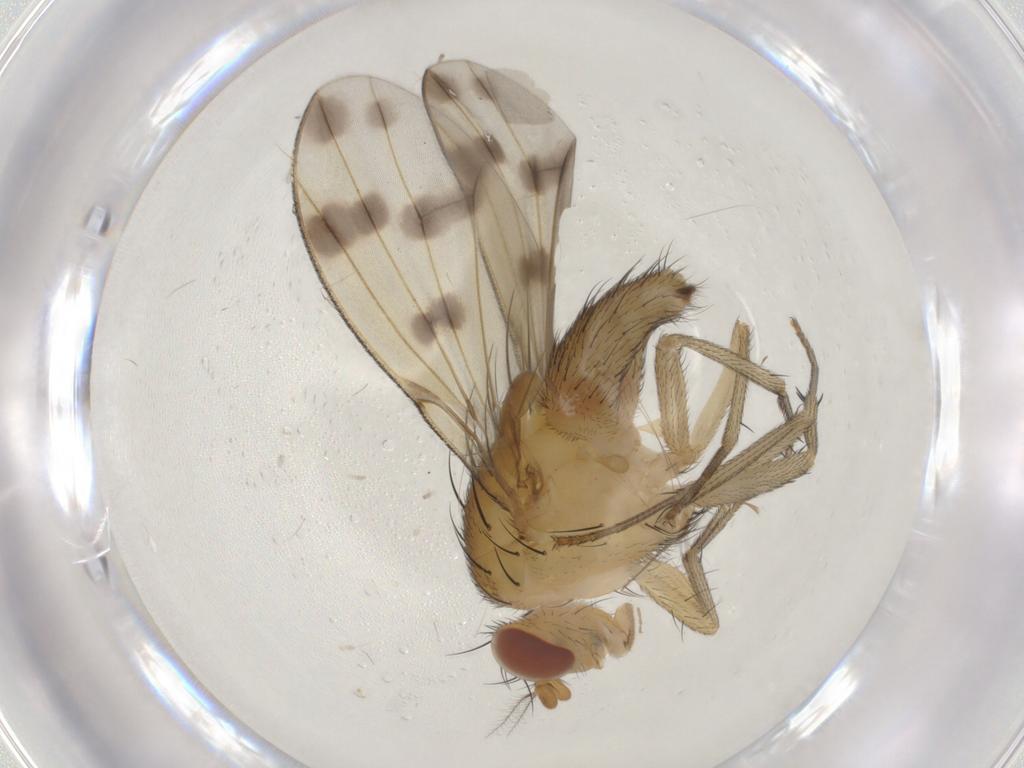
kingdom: Animalia
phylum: Arthropoda
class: Insecta
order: Diptera
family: Chironomidae
